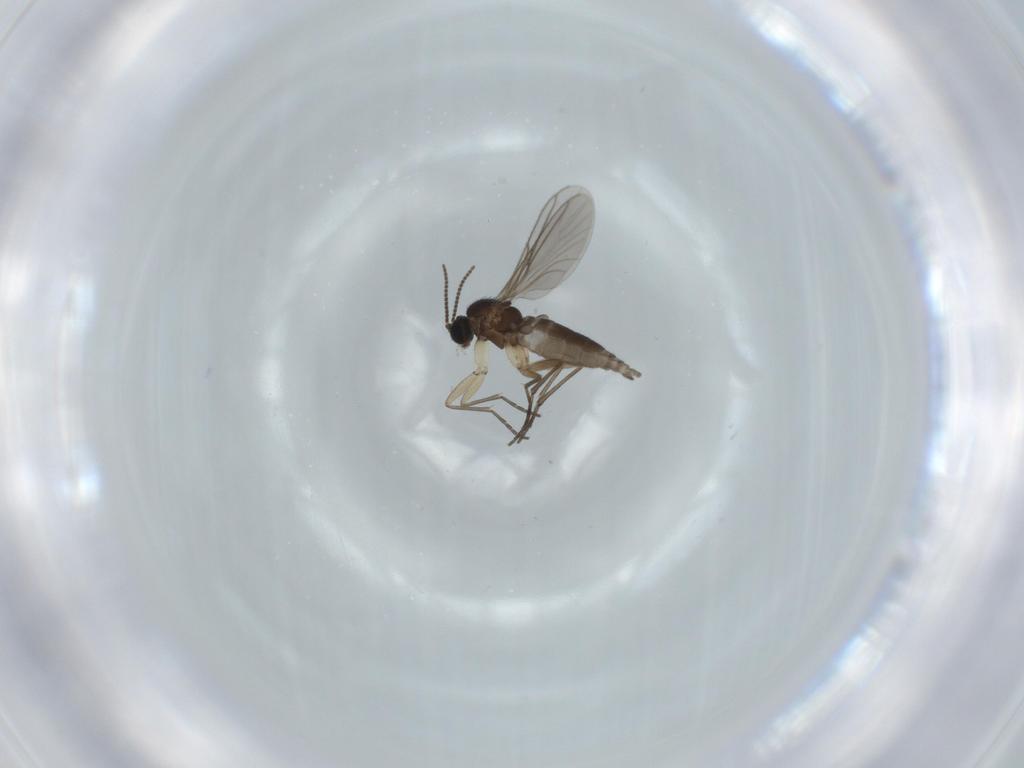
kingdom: Animalia
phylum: Arthropoda
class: Insecta
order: Diptera
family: Sciaridae
